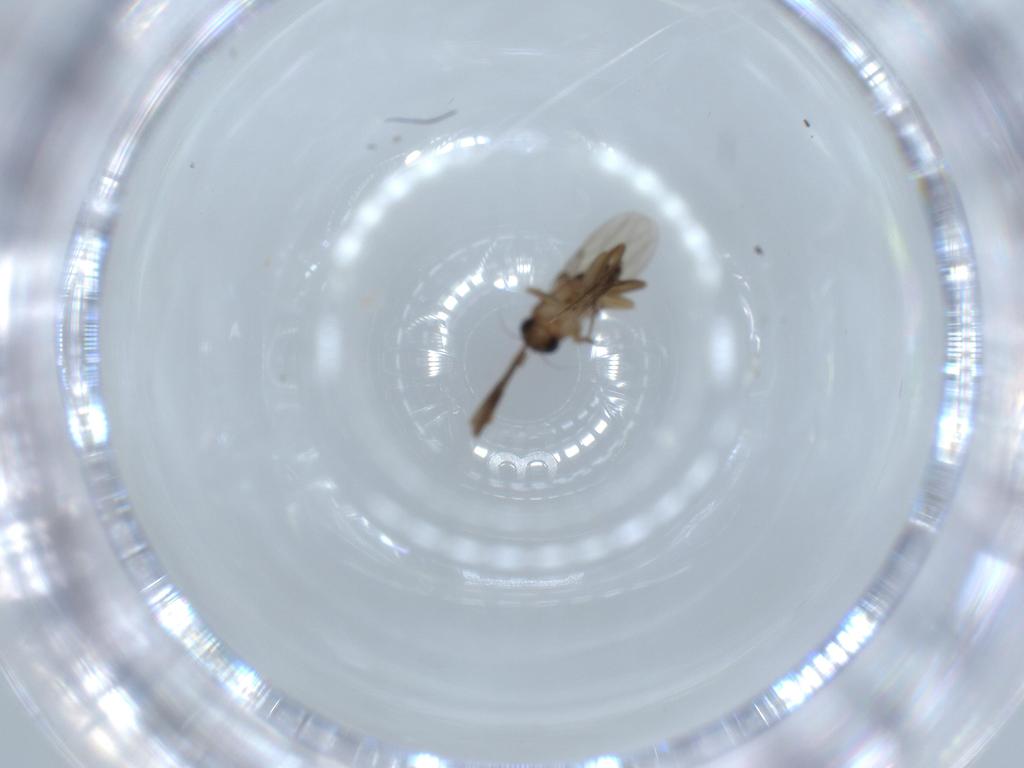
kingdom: Animalia
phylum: Arthropoda
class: Insecta
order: Diptera
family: Phoridae
